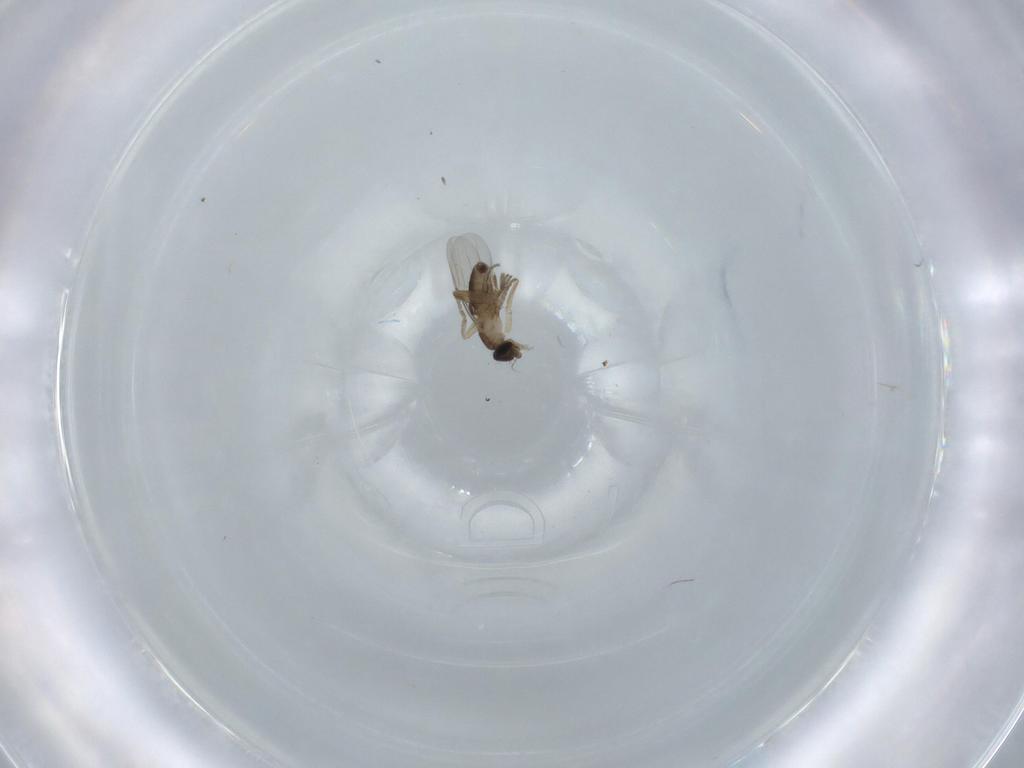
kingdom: Animalia
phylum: Arthropoda
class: Insecta
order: Diptera
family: Phoridae
